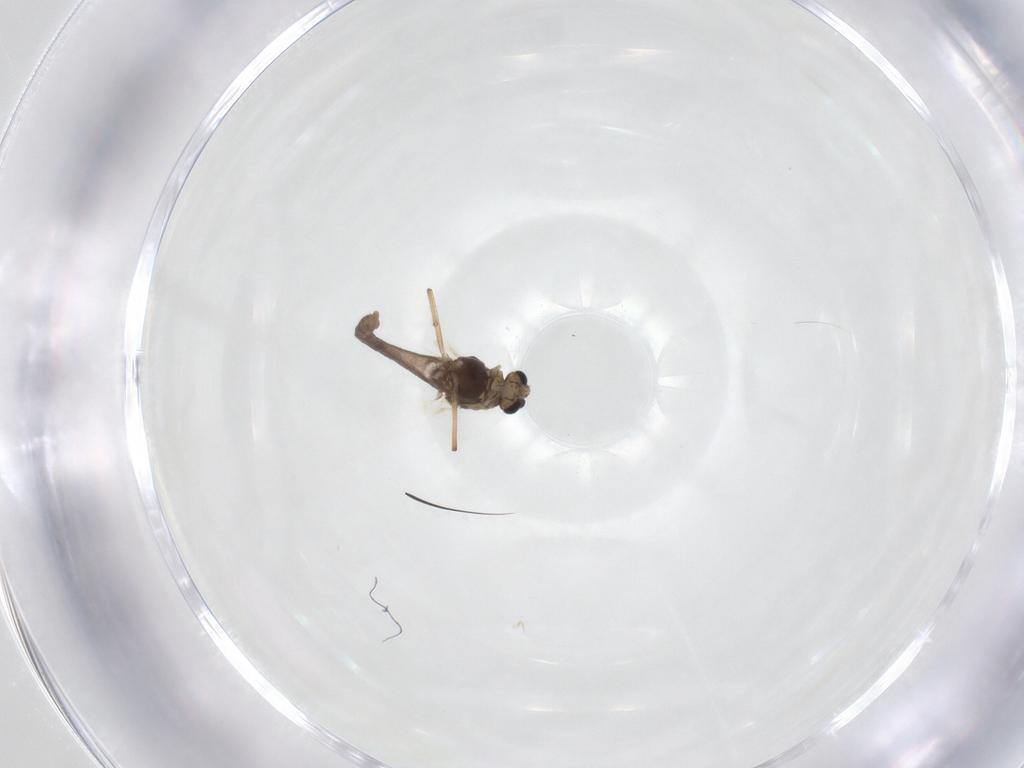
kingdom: Animalia
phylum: Arthropoda
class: Insecta
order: Diptera
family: Chironomidae
